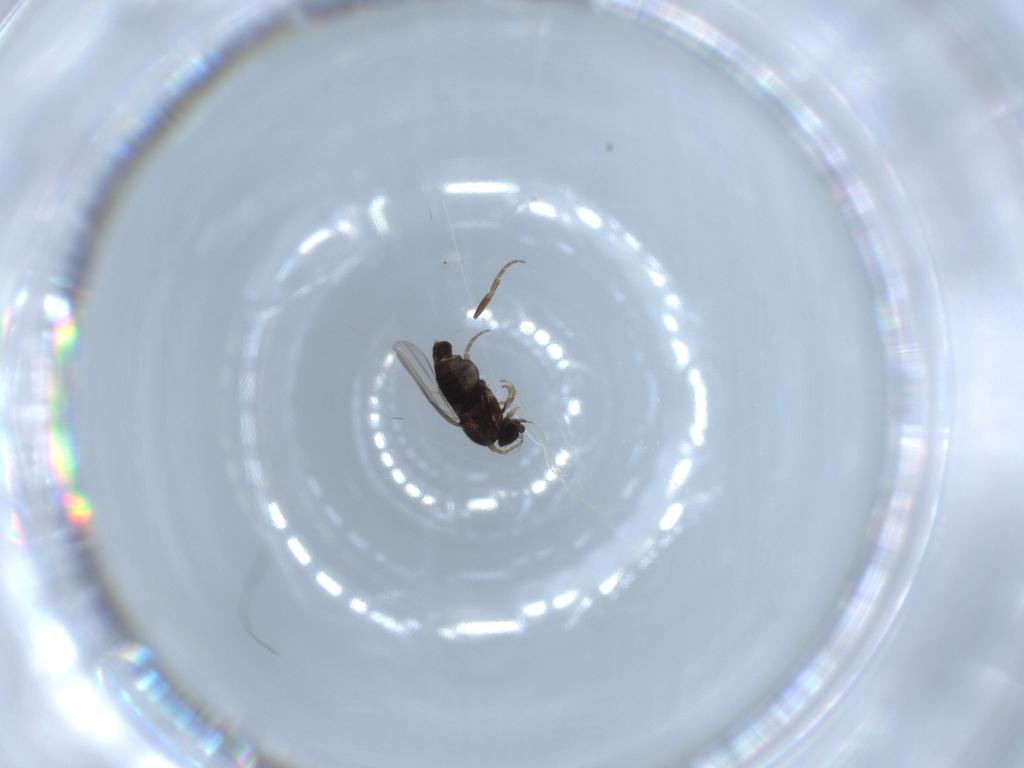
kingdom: Animalia
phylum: Arthropoda
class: Insecta
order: Diptera
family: Phoridae
